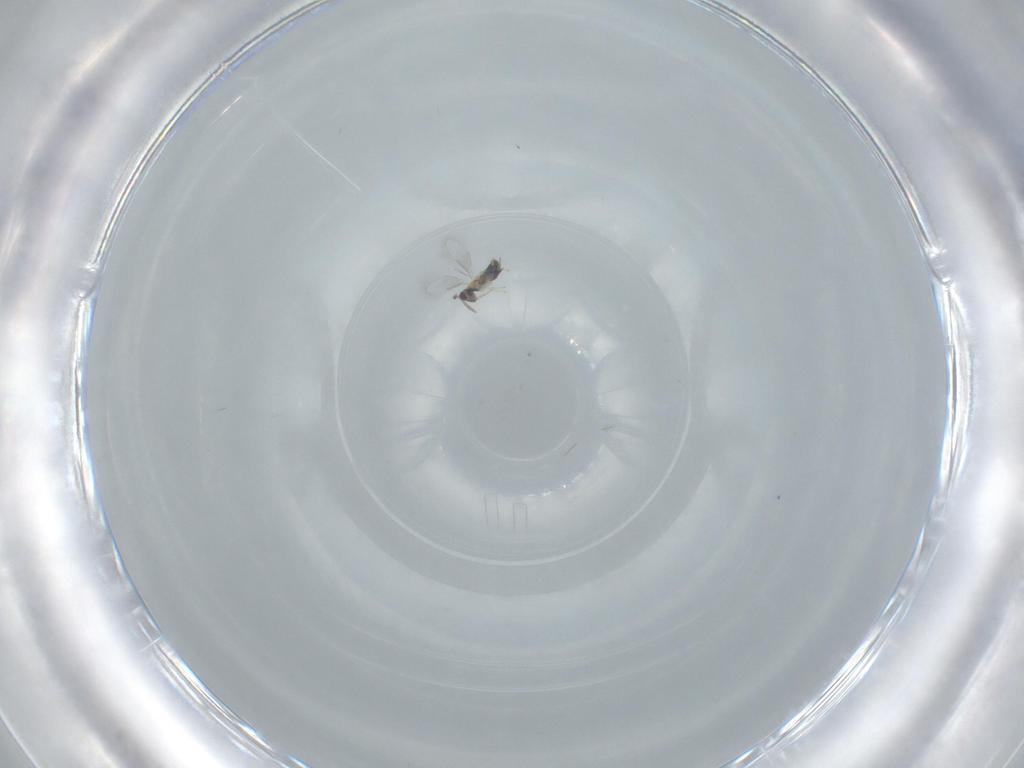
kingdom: Animalia
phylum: Arthropoda
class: Insecta
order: Hymenoptera
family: Aphelinidae
